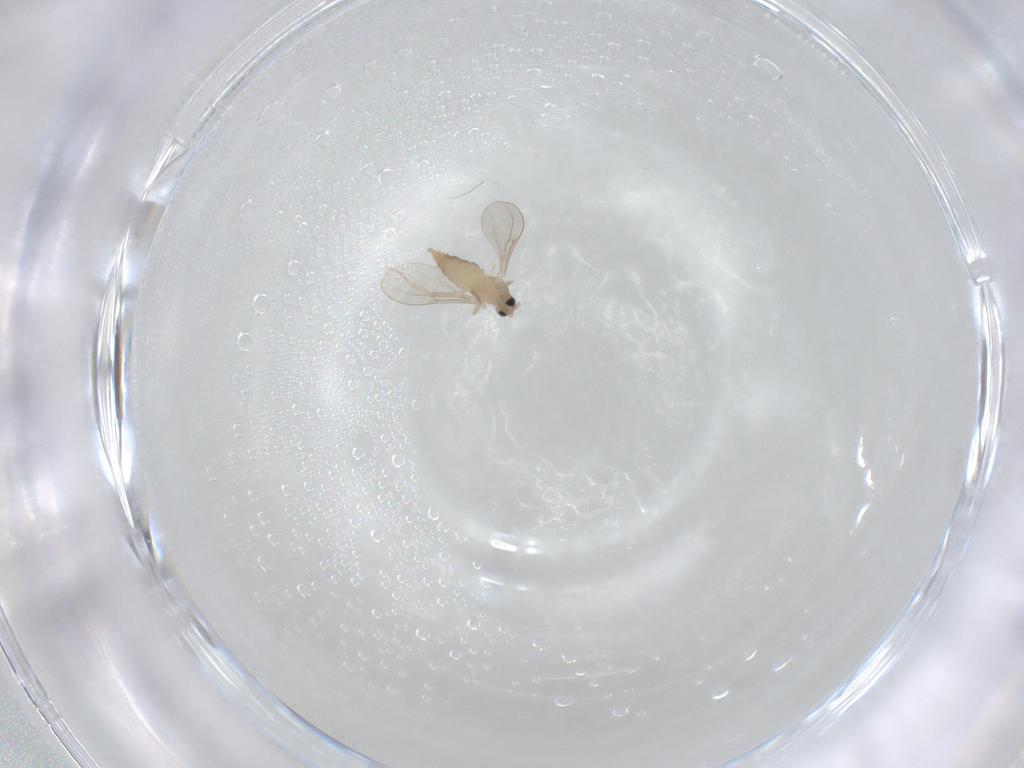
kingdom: Animalia
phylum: Arthropoda
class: Insecta
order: Diptera
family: Cecidomyiidae
